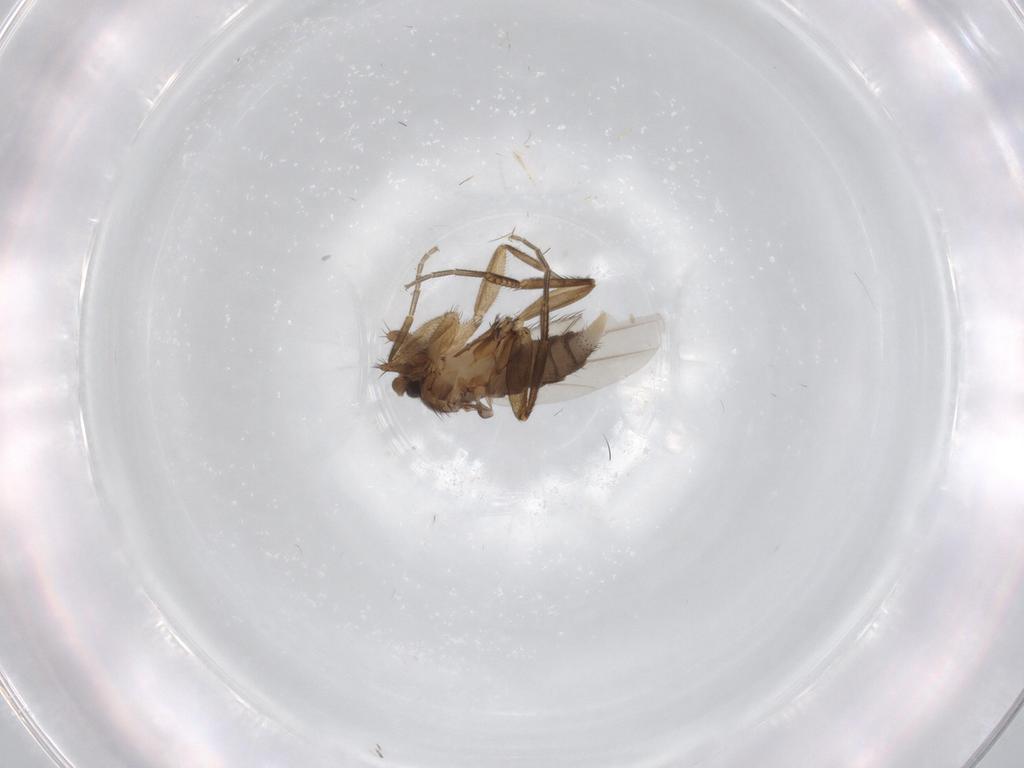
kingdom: Animalia
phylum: Arthropoda
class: Insecta
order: Diptera
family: Phoridae
